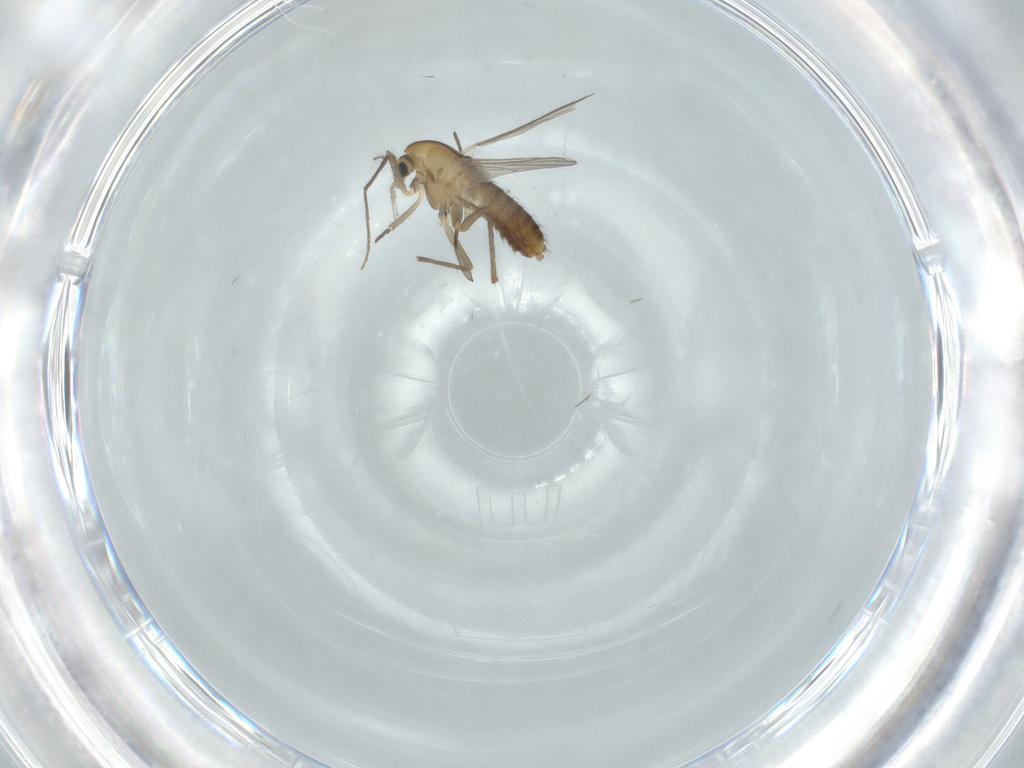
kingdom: Animalia
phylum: Arthropoda
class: Insecta
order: Diptera
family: Chironomidae
